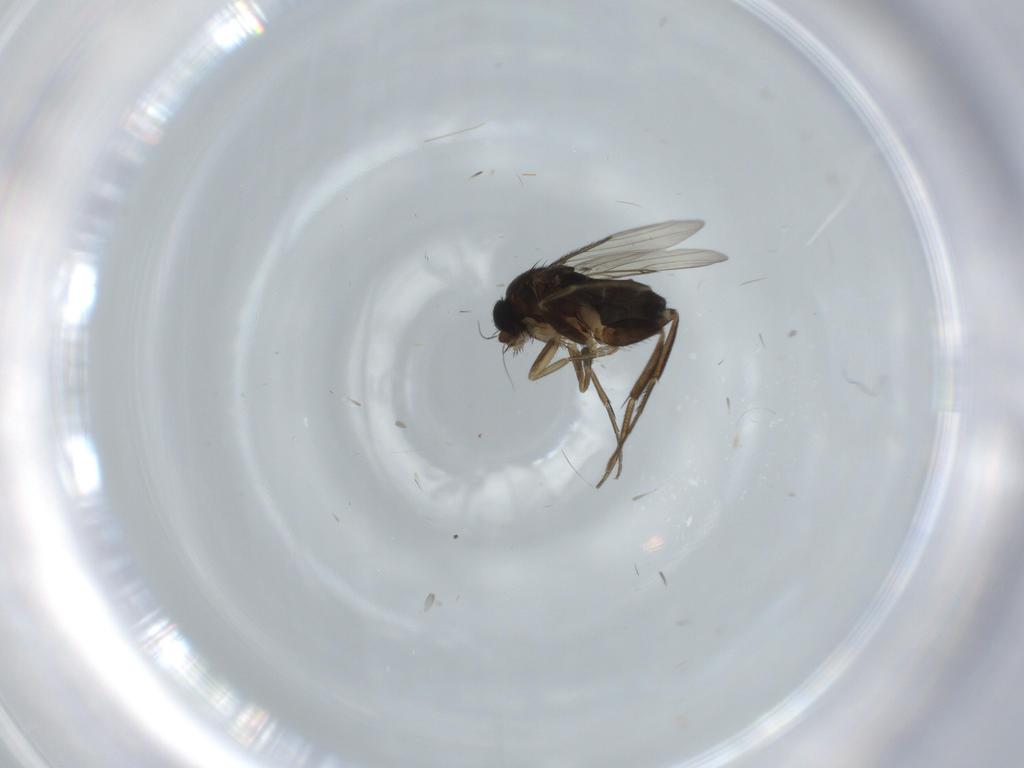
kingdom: Animalia
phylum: Arthropoda
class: Insecta
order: Diptera
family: Phoridae
